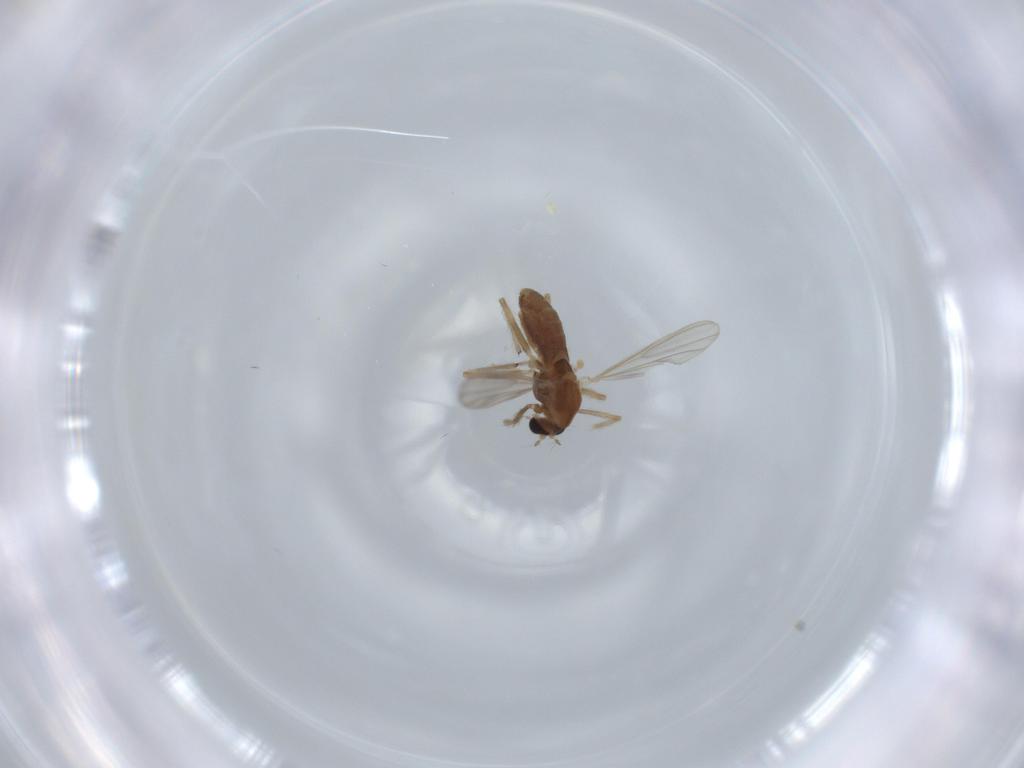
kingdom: Animalia
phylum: Arthropoda
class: Insecta
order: Diptera
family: Chironomidae
